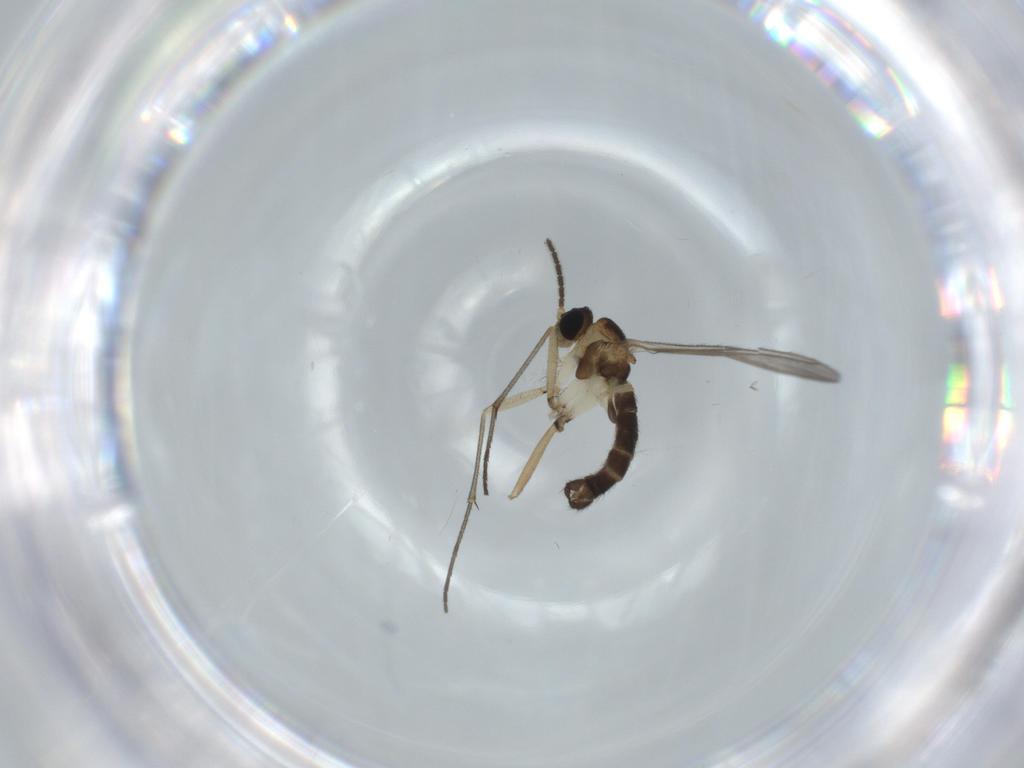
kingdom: Animalia
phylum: Arthropoda
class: Insecta
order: Diptera
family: Sciaridae
